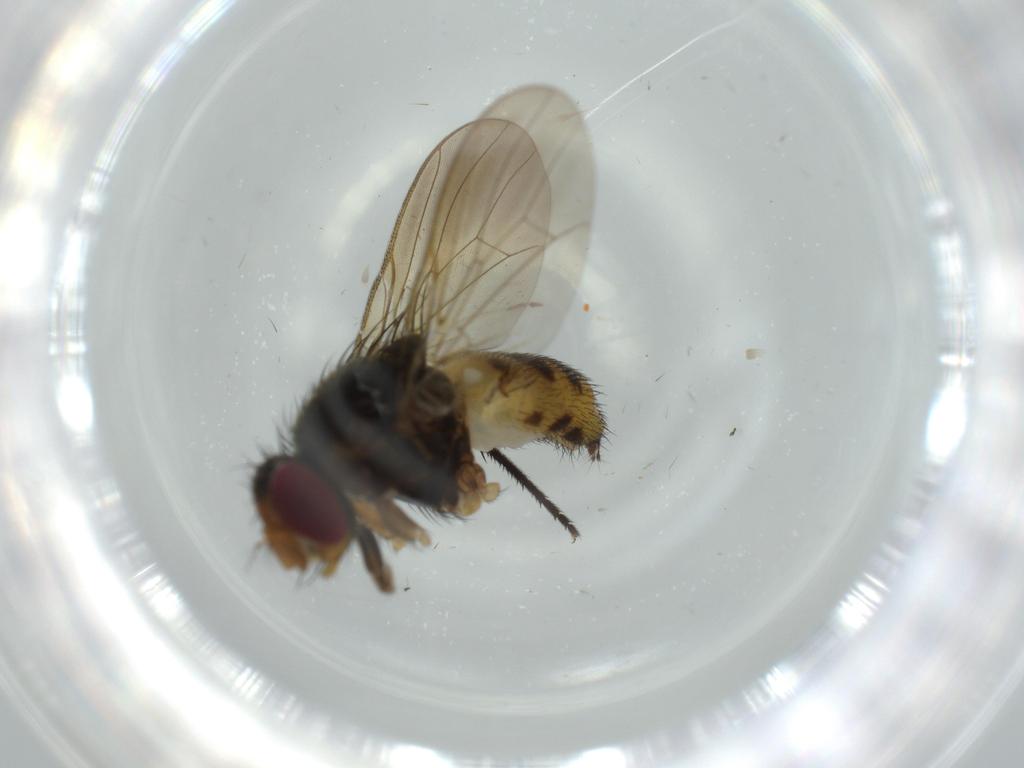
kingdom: Animalia
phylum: Arthropoda
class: Insecta
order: Diptera
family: Anthomyiidae
